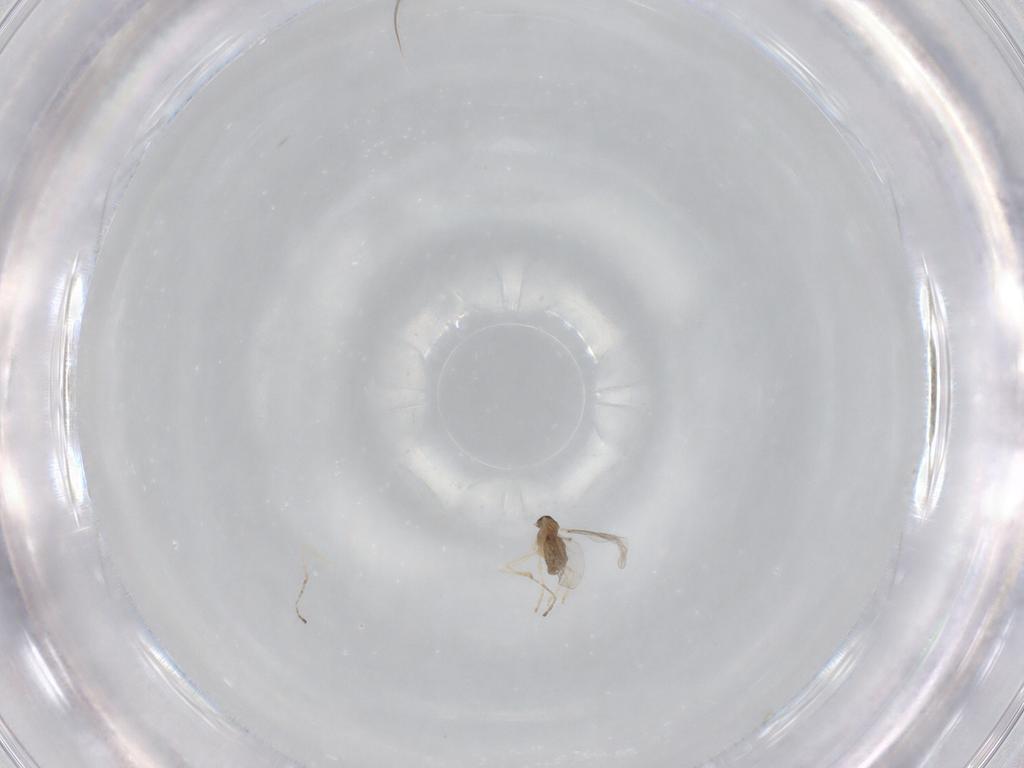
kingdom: Animalia
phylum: Arthropoda
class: Insecta
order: Diptera
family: Cecidomyiidae
